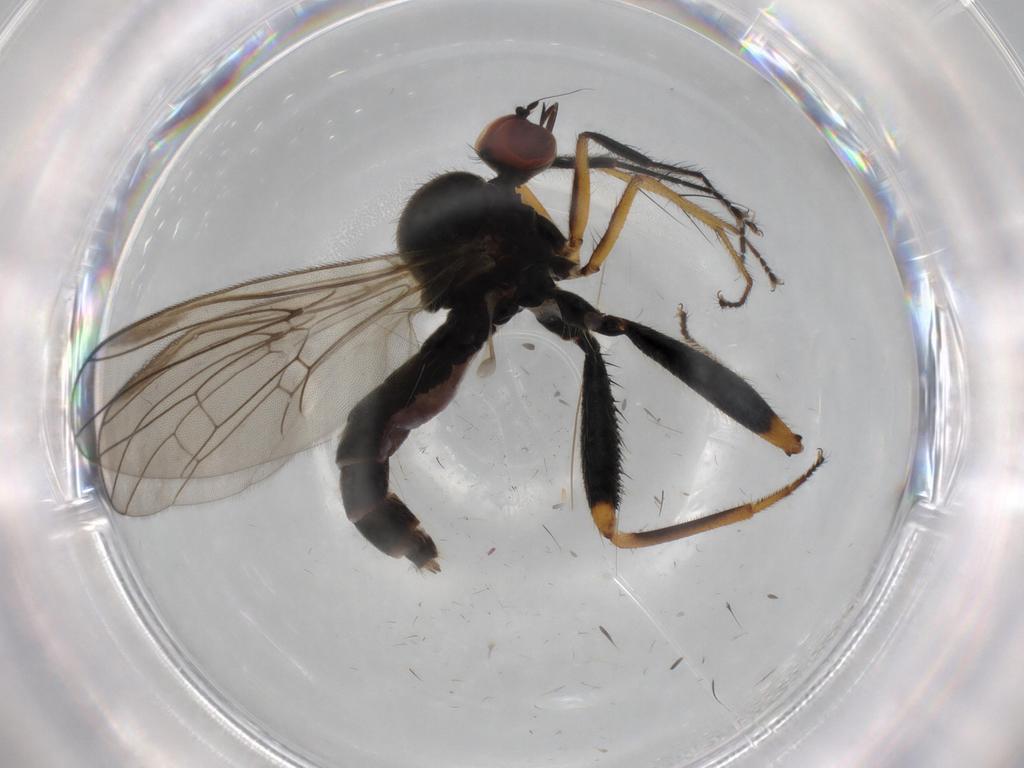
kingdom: Animalia
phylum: Arthropoda
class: Insecta
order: Diptera
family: Hybotidae
